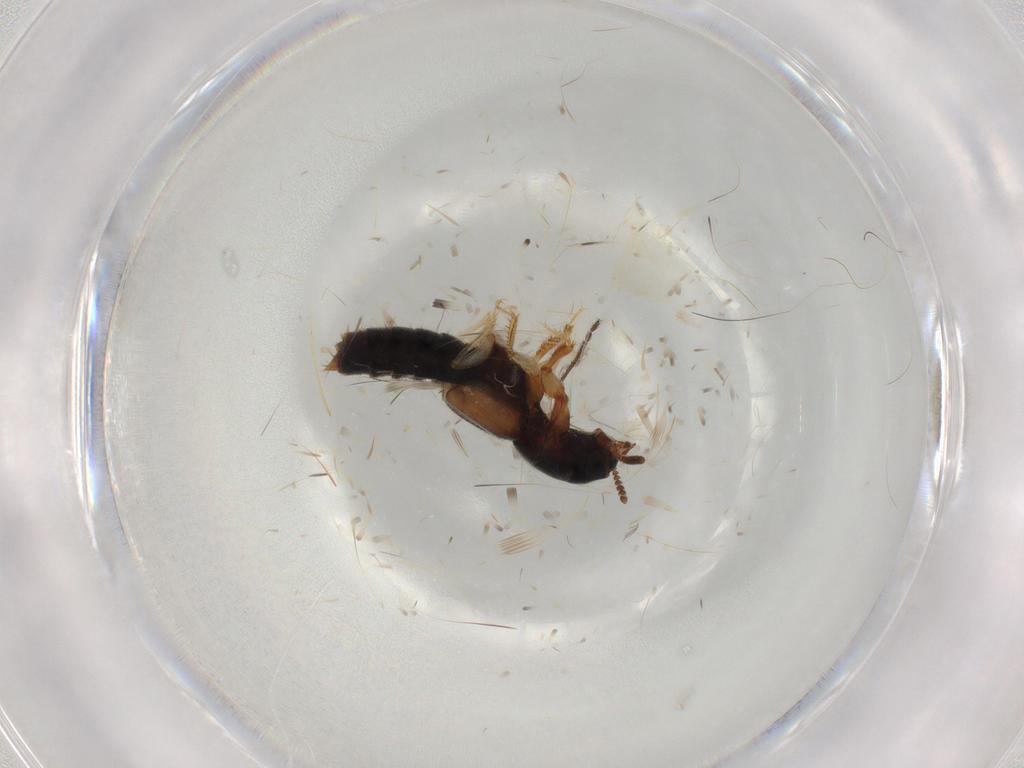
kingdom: Animalia
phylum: Arthropoda
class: Insecta
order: Coleoptera
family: Staphylinidae
